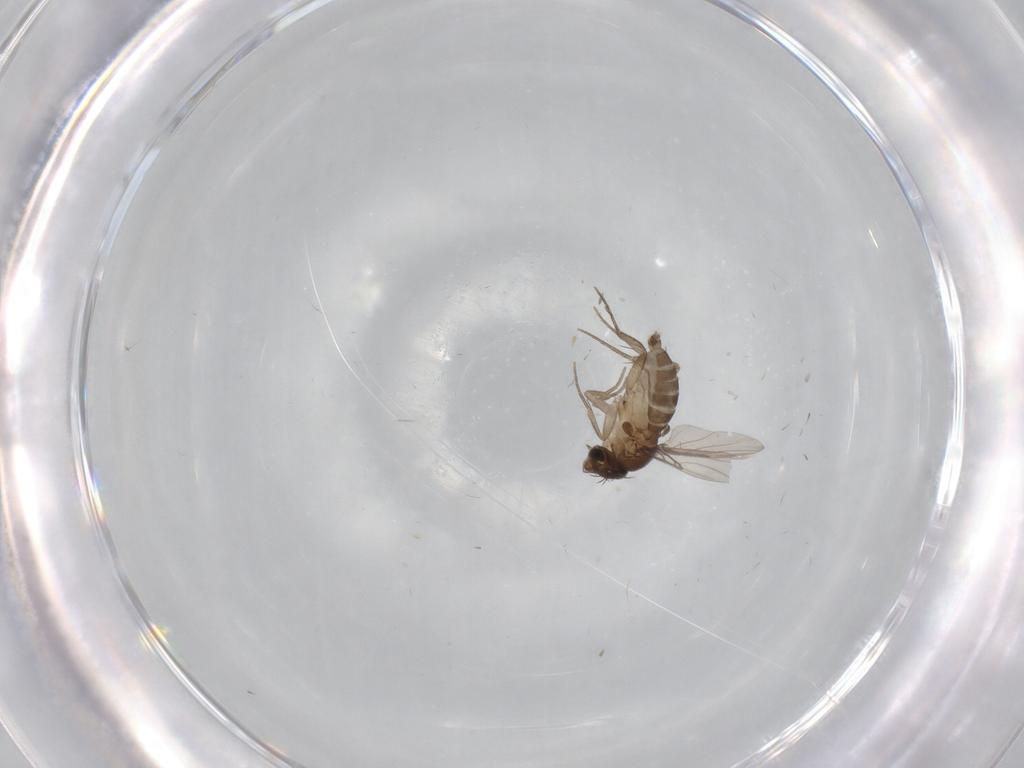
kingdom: Animalia
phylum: Arthropoda
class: Insecta
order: Diptera
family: Phoridae
